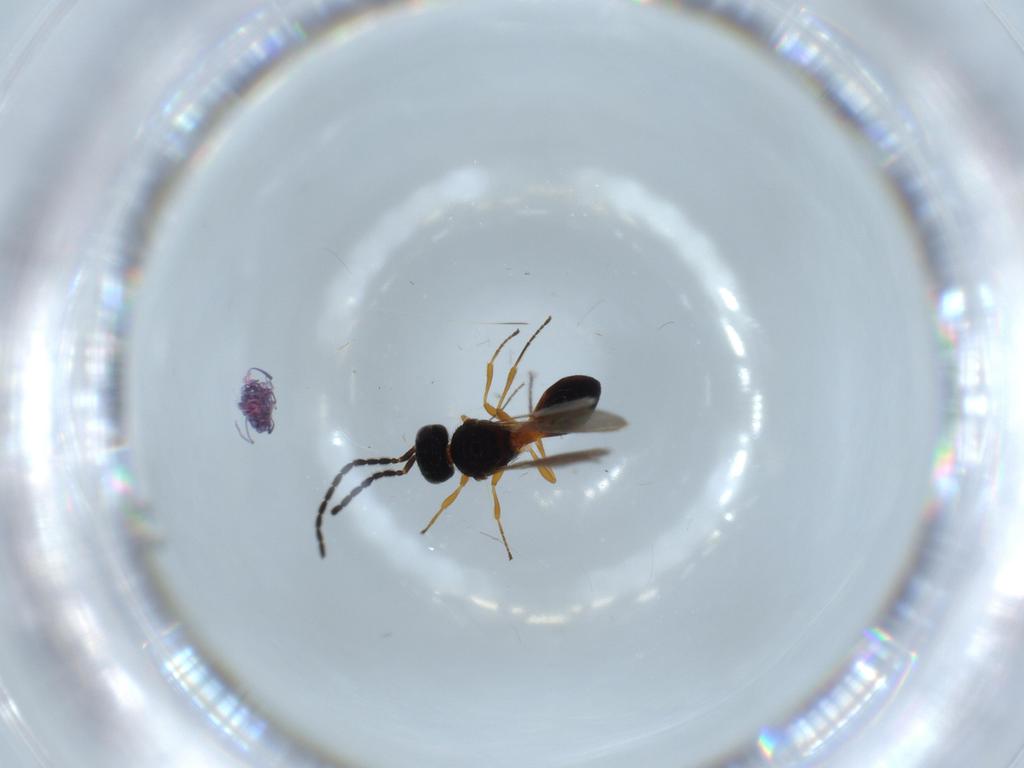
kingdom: Animalia
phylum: Arthropoda
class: Insecta
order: Hymenoptera
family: Scelionidae
